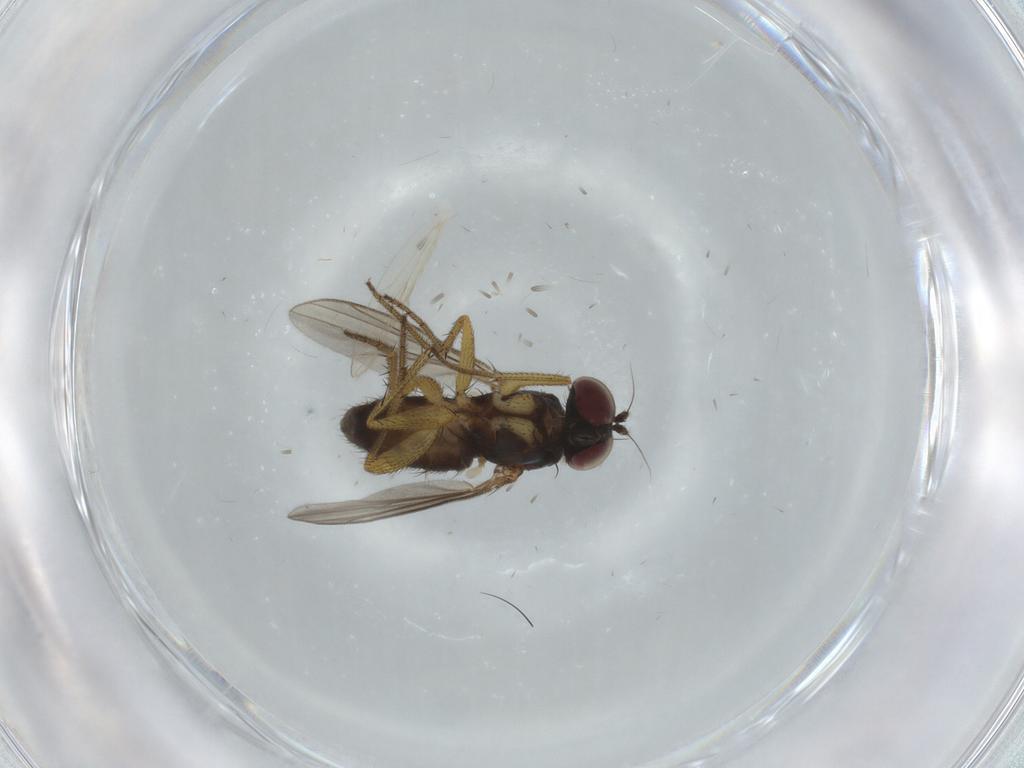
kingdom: Animalia
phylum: Arthropoda
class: Insecta
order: Diptera
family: Dolichopodidae
